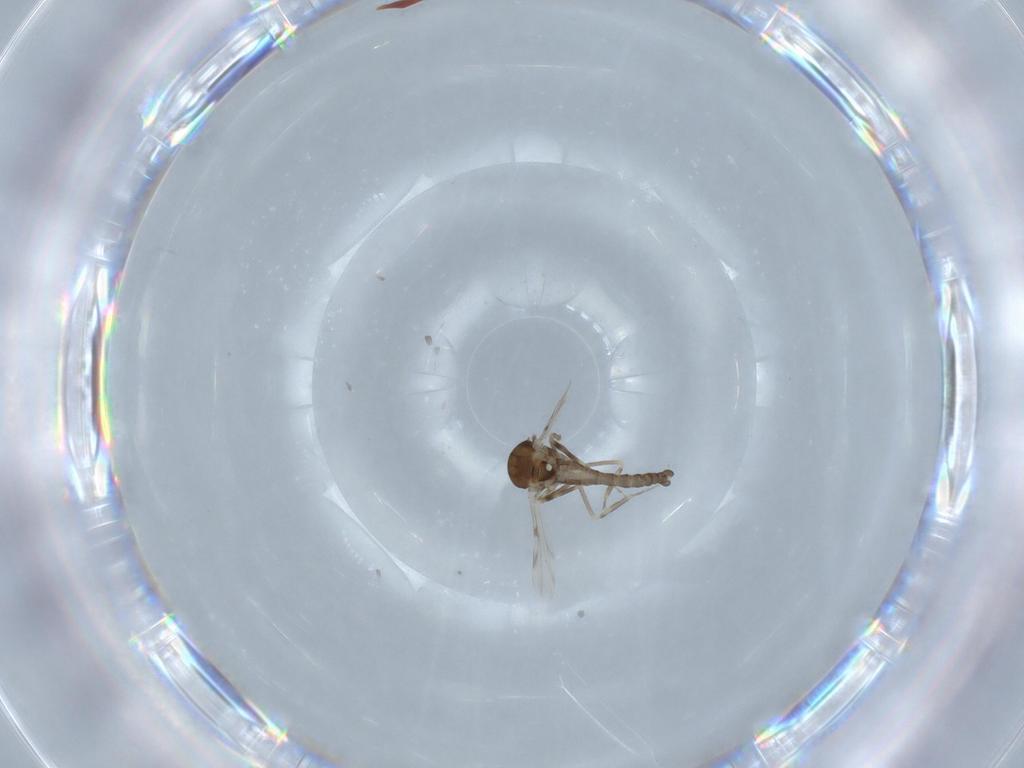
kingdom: Animalia
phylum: Arthropoda
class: Insecta
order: Diptera
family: Ceratopogonidae
